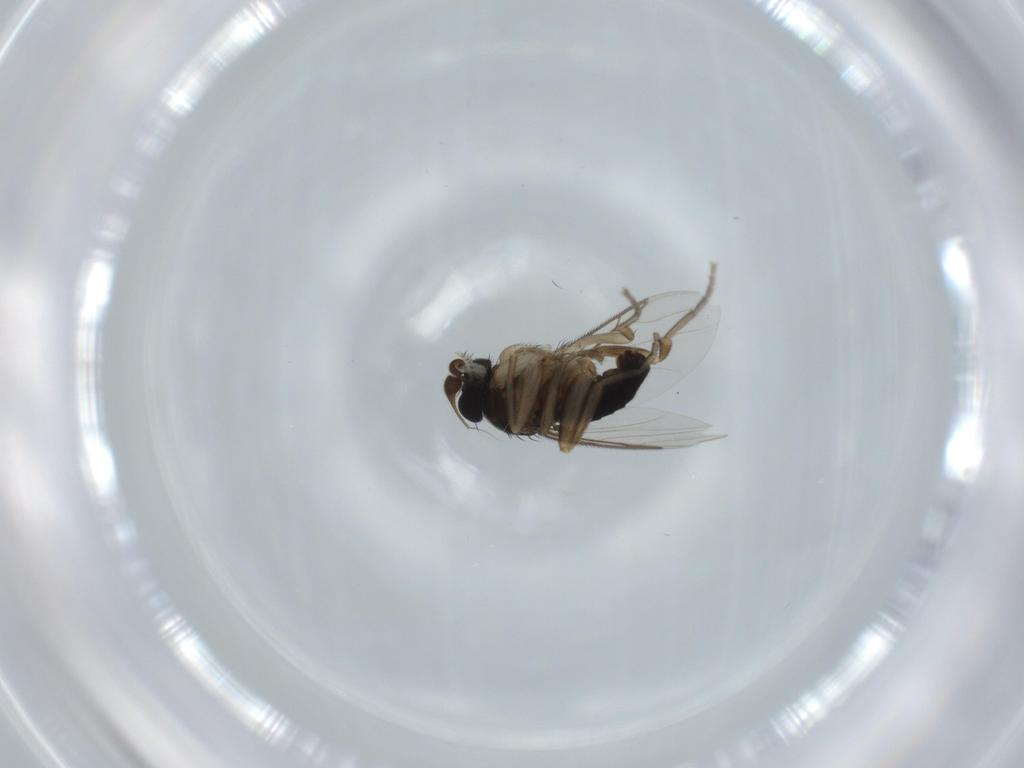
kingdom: Animalia
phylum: Arthropoda
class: Insecta
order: Diptera
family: Phoridae
